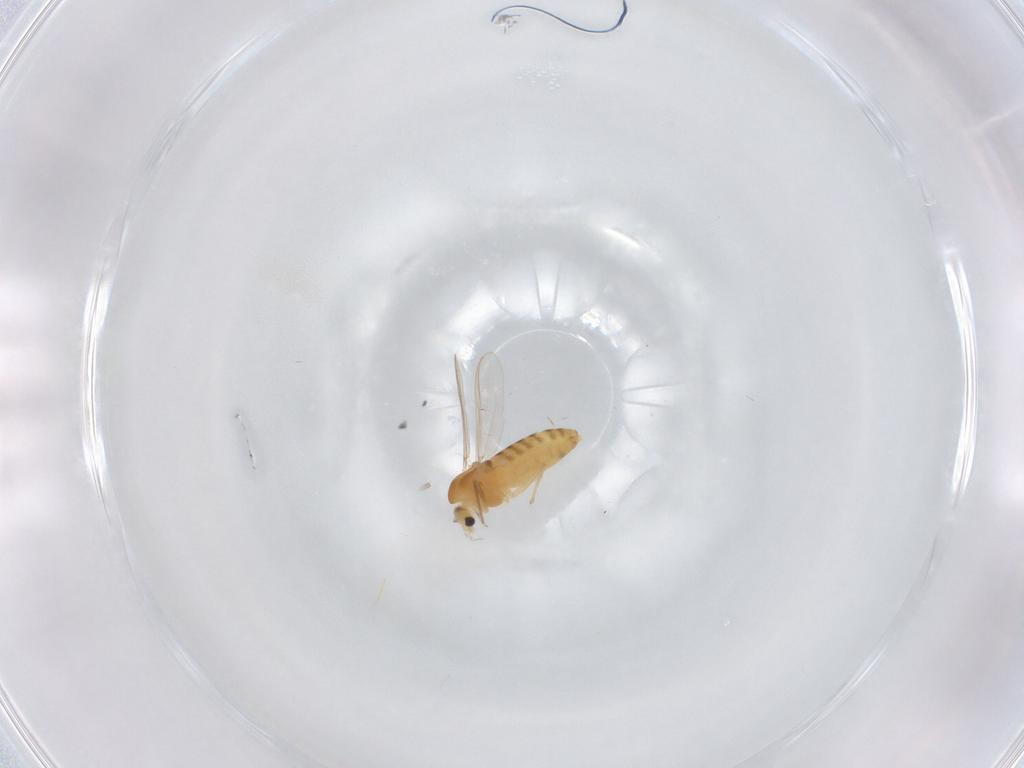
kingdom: Animalia
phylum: Arthropoda
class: Insecta
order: Diptera
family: Chironomidae
